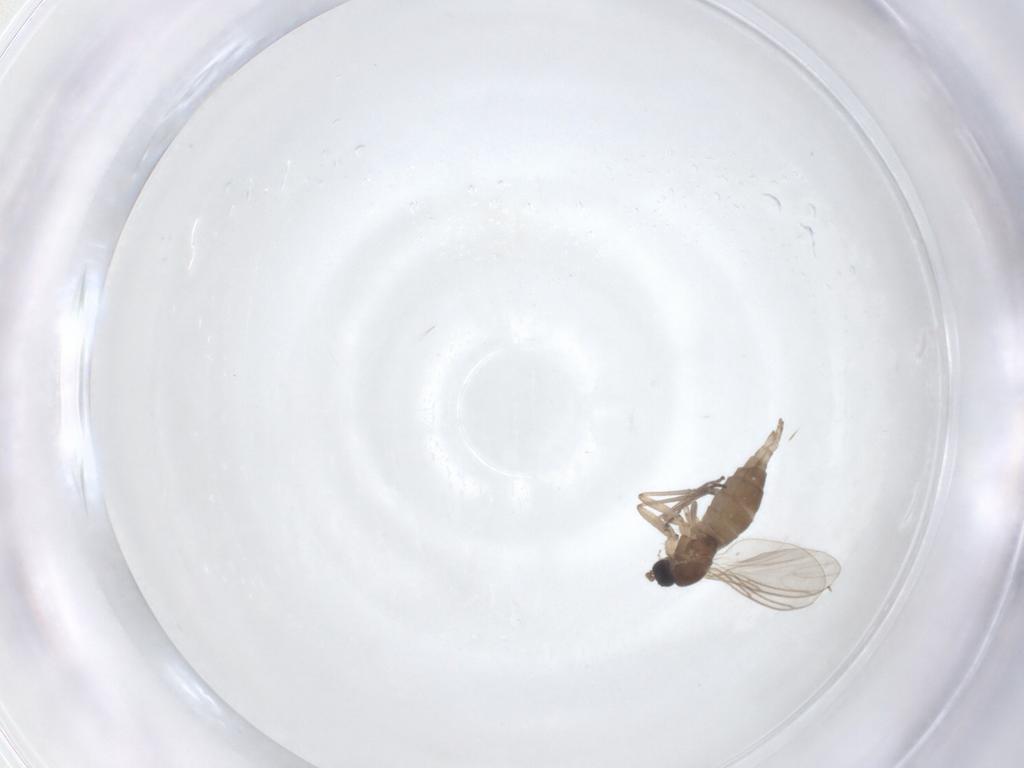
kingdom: Animalia
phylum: Arthropoda
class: Insecta
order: Diptera
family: Sciaridae
